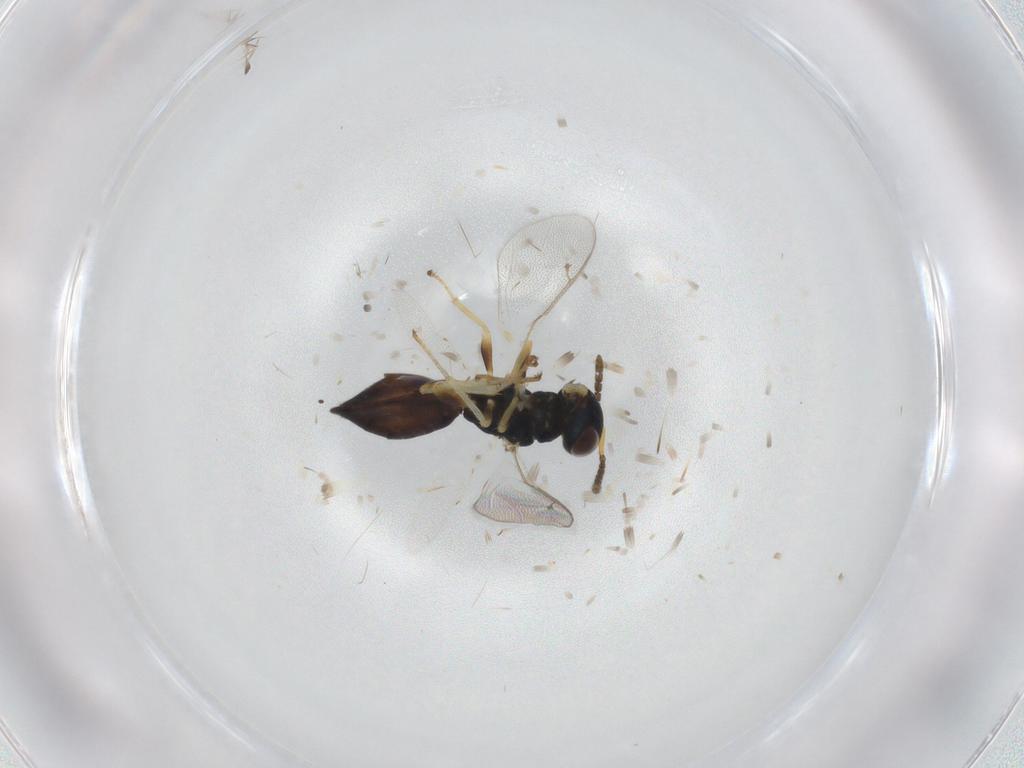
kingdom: Animalia
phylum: Arthropoda
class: Insecta
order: Hymenoptera
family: Pteromalidae
